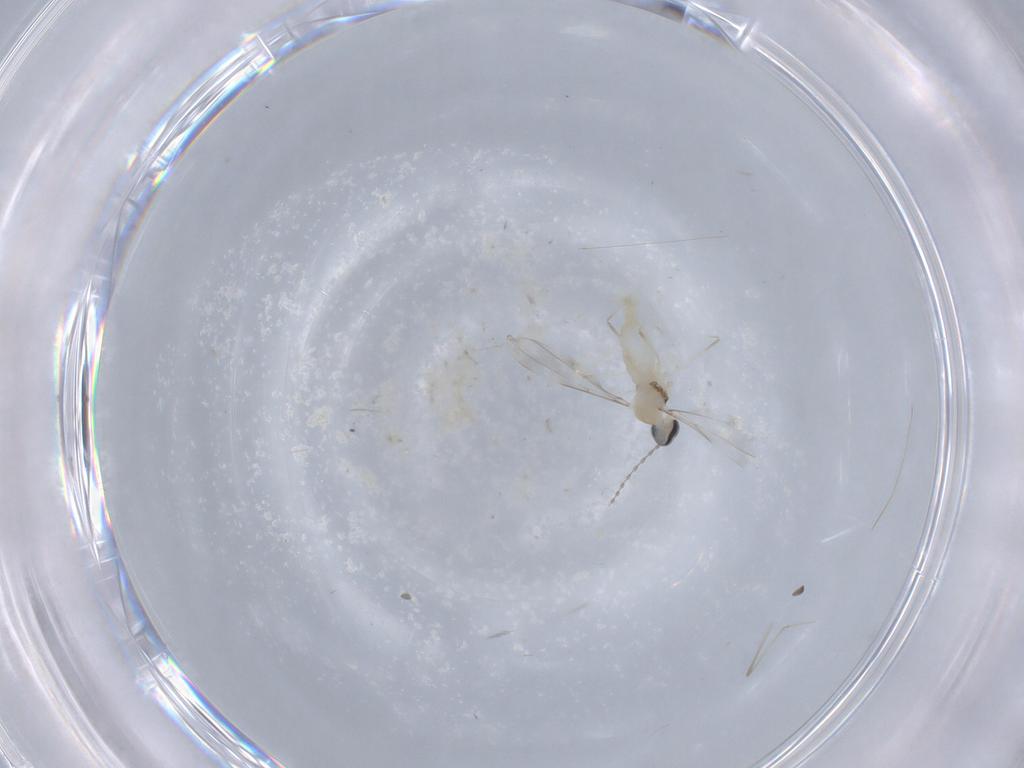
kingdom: Animalia
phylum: Arthropoda
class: Insecta
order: Diptera
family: Cecidomyiidae
